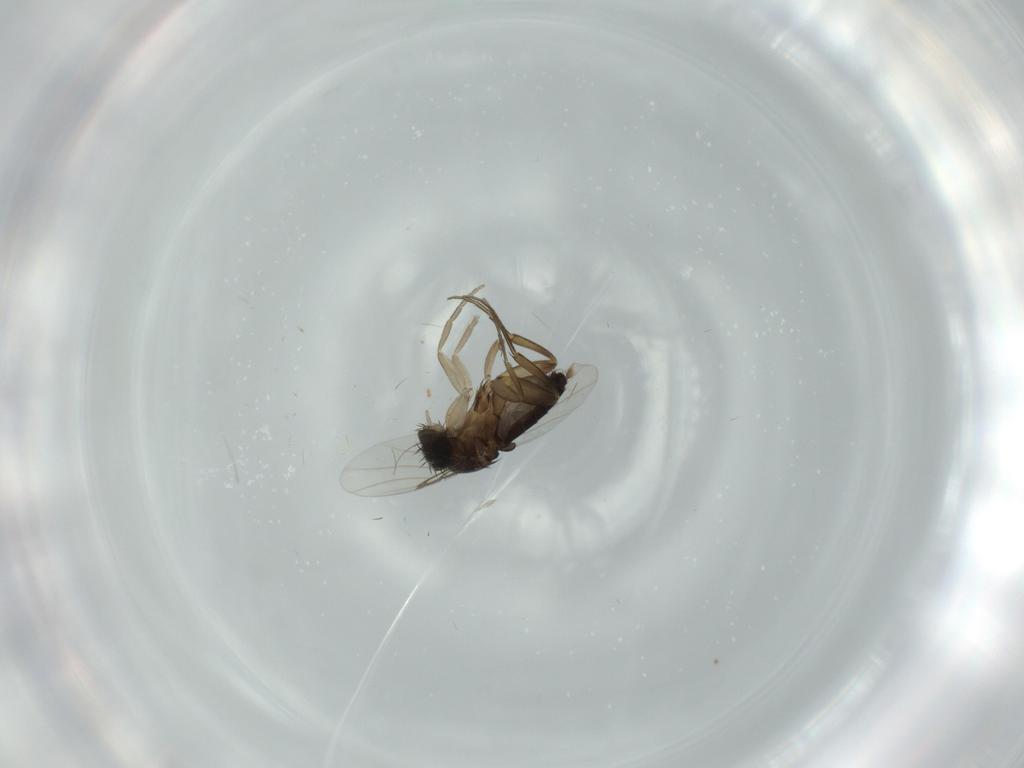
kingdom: Animalia
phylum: Arthropoda
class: Insecta
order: Diptera
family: Phoridae
